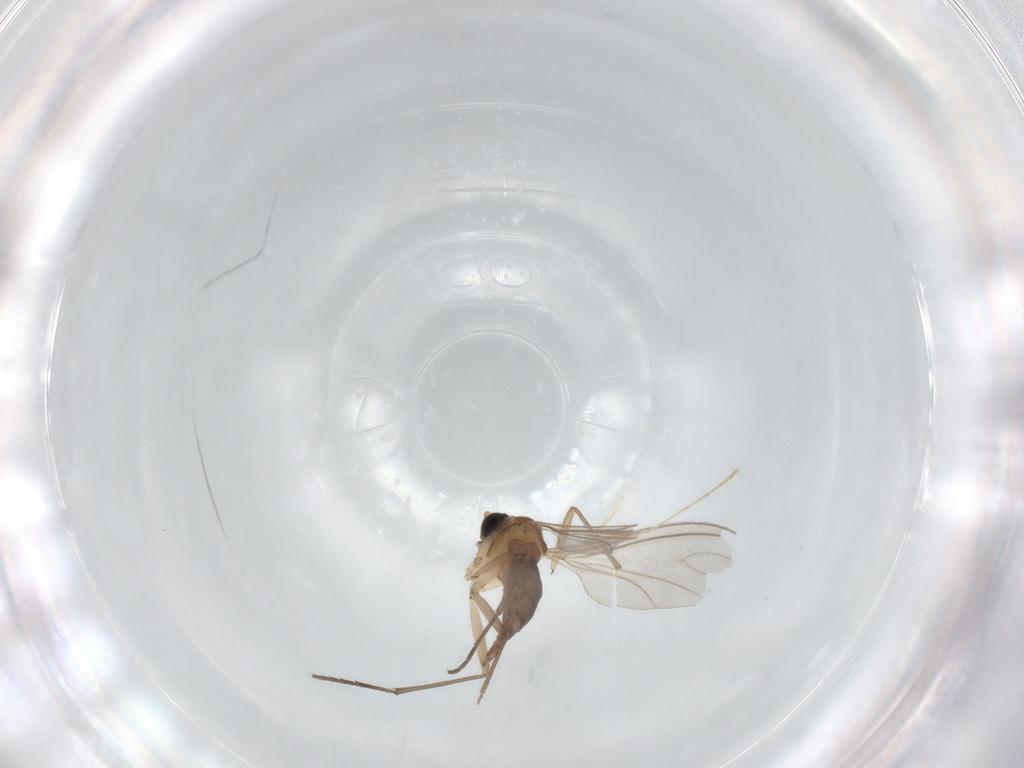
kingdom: Animalia
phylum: Arthropoda
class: Insecta
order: Diptera
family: Sciaridae
